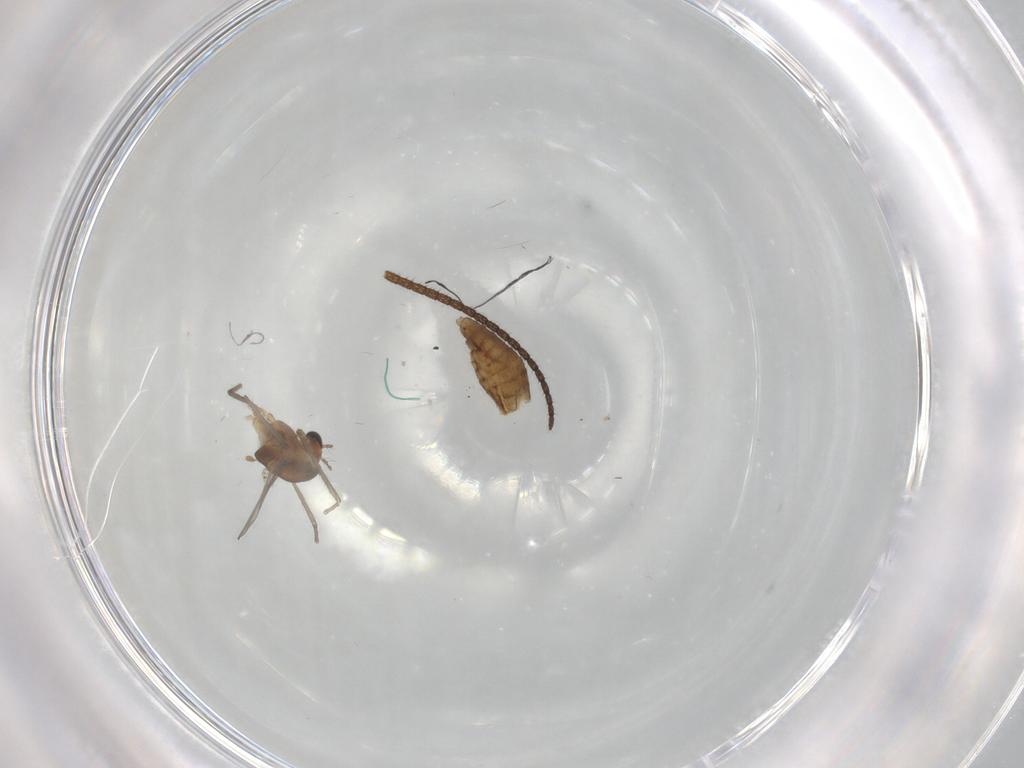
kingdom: Animalia
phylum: Arthropoda
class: Insecta
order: Diptera
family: Chironomidae
